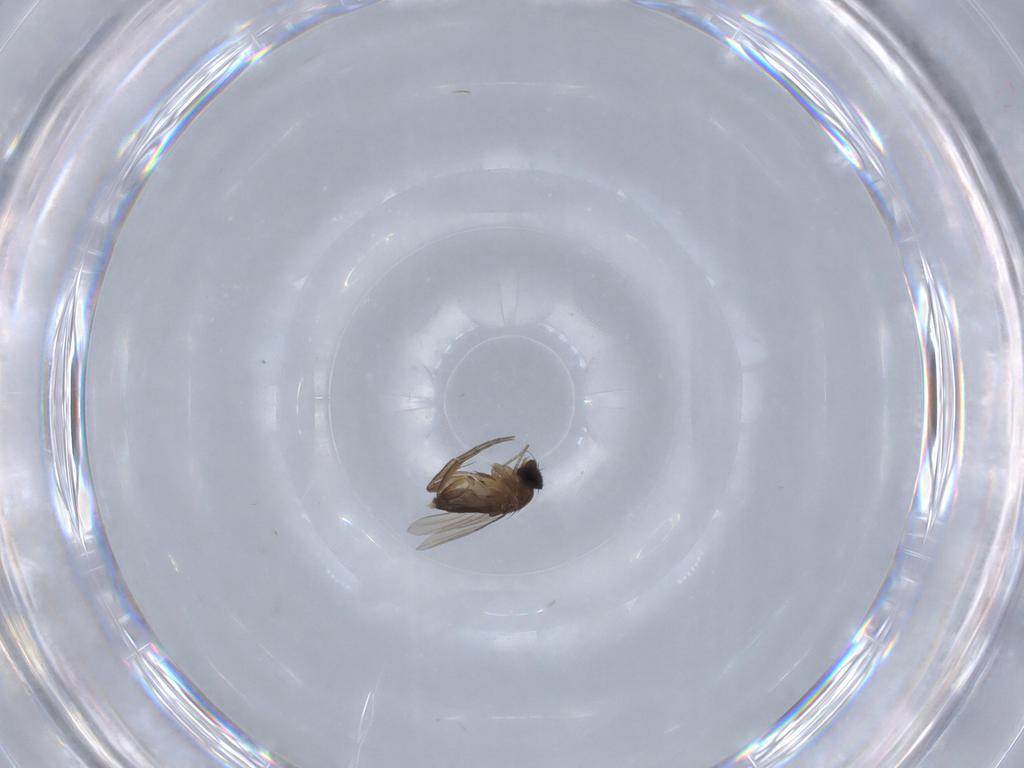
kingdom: Animalia
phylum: Arthropoda
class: Insecta
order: Diptera
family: Phoridae
